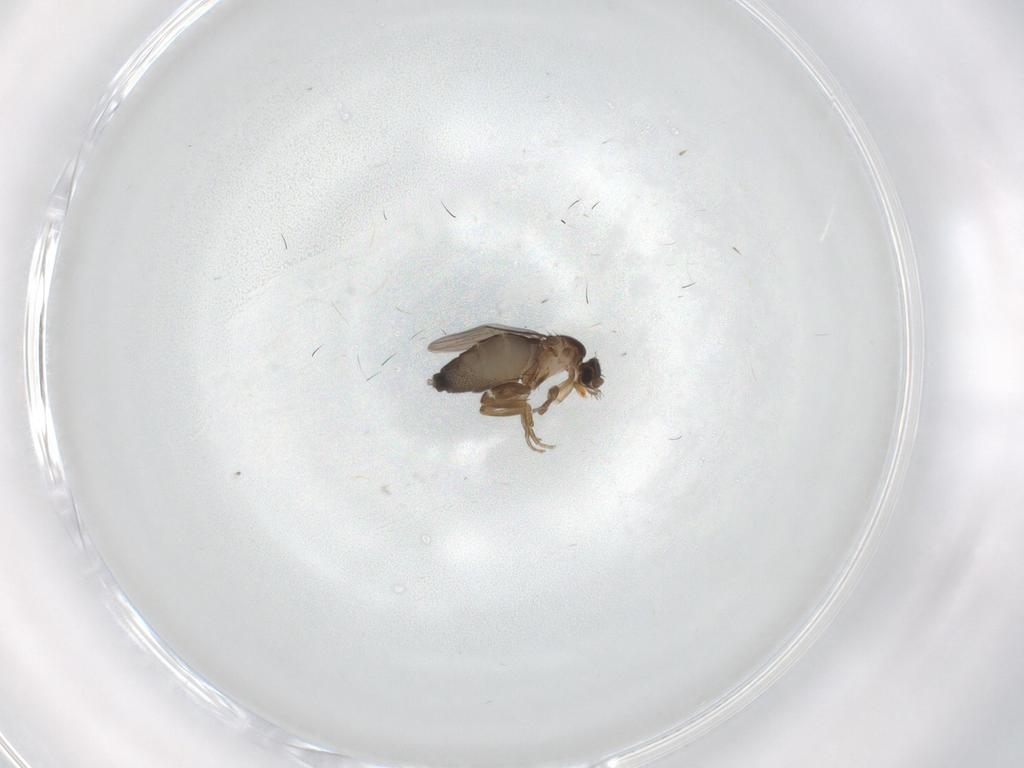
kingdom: Animalia
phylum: Arthropoda
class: Insecta
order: Diptera
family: Phoridae
